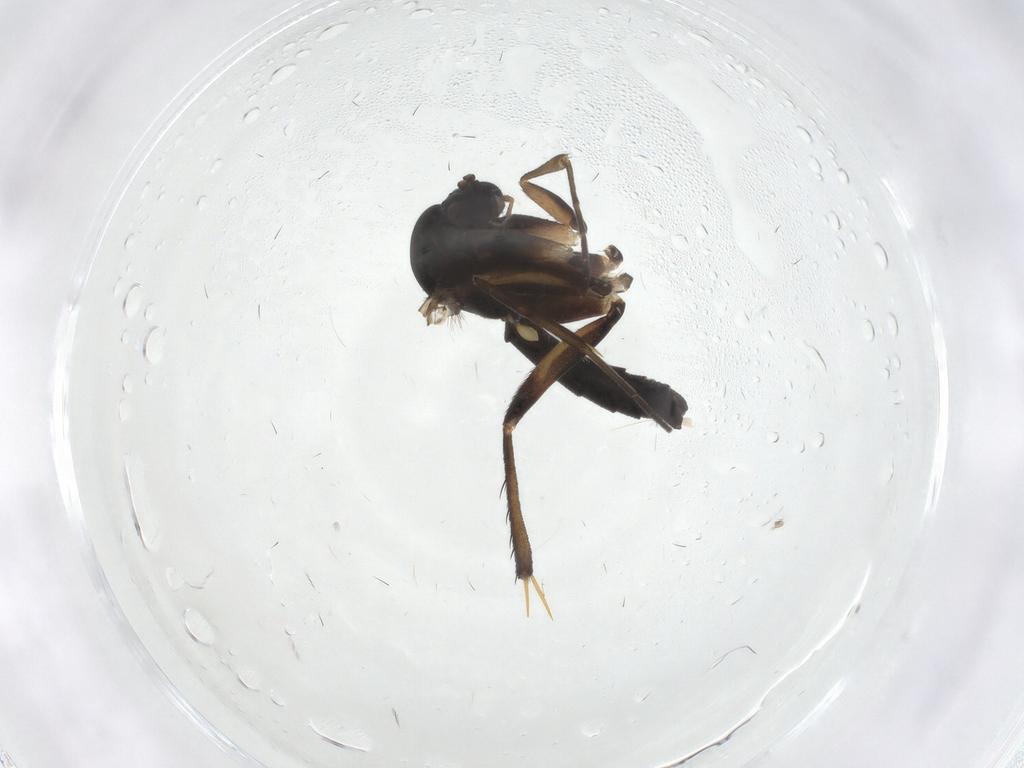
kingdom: Animalia
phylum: Arthropoda
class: Insecta
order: Diptera
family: Clusiidae
